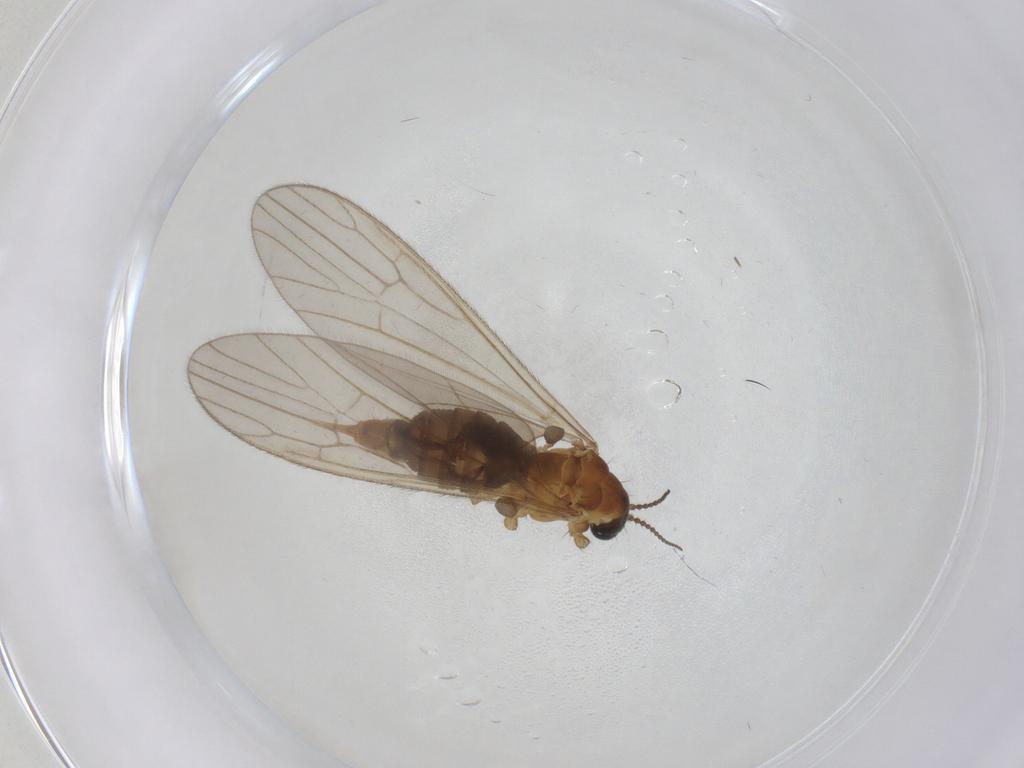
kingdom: Animalia
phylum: Arthropoda
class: Insecta
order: Diptera
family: Limoniidae
